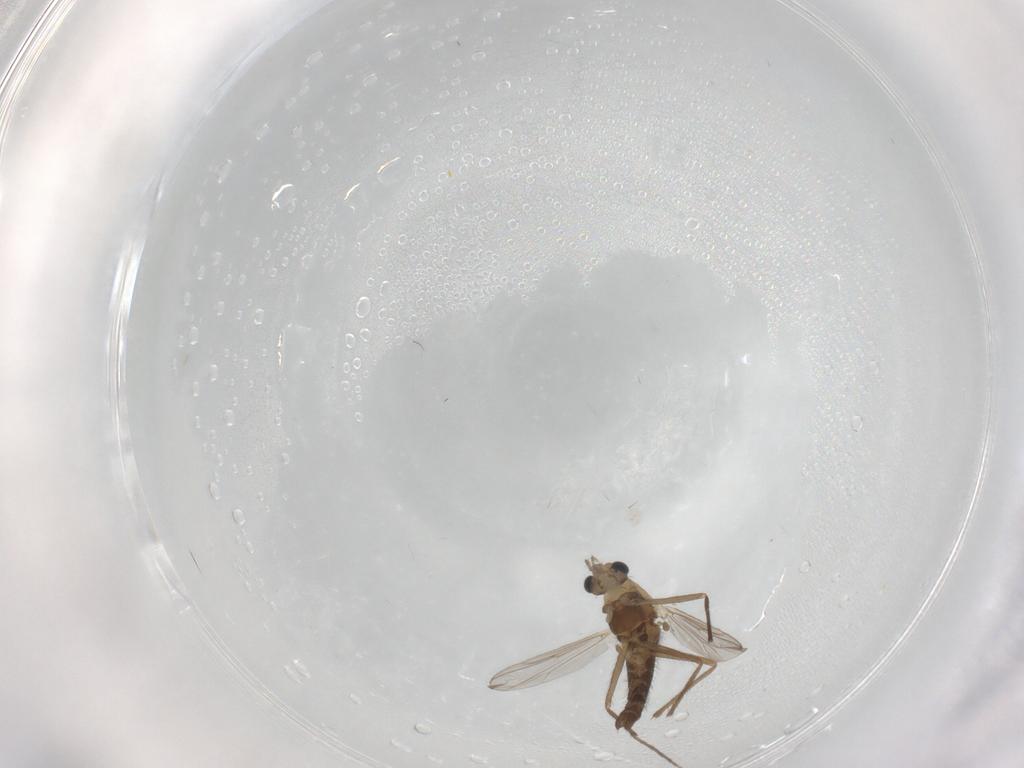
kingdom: Animalia
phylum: Arthropoda
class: Insecta
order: Diptera
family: Chironomidae
